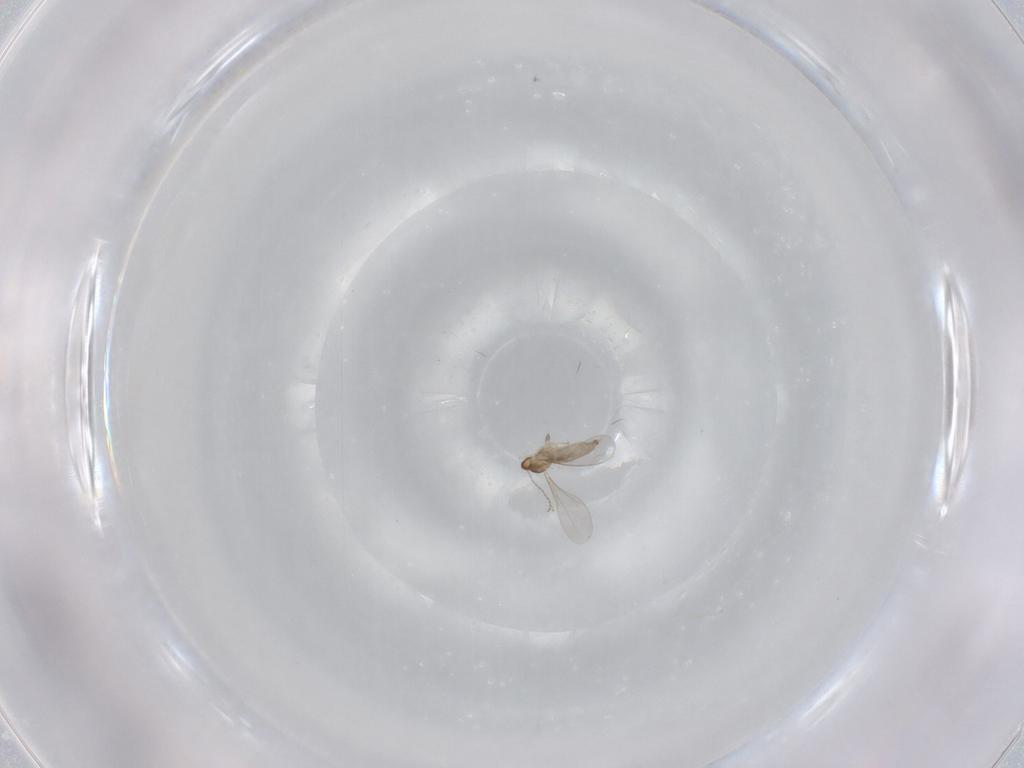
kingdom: Animalia
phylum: Arthropoda
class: Insecta
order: Diptera
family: Cecidomyiidae
